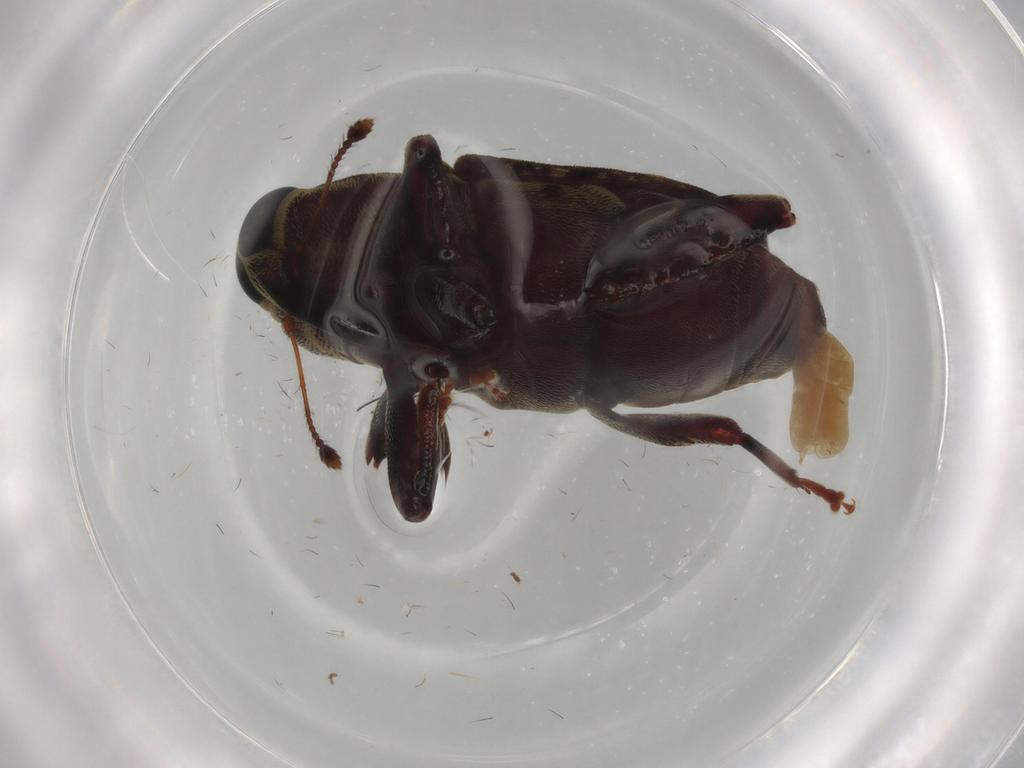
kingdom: Animalia
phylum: Arthropoda
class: Insecta
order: Coleoptera
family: Curculionidae
